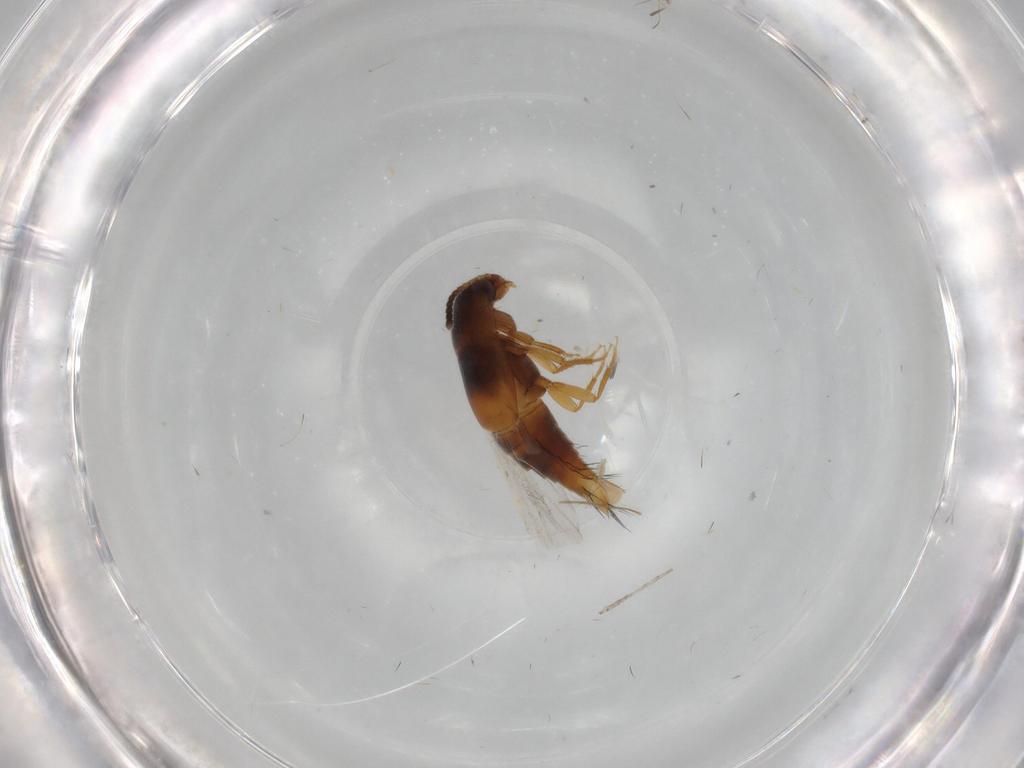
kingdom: Animalia
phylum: Arthropoda
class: Insecta
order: Coleoptera
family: Staphylinidae
